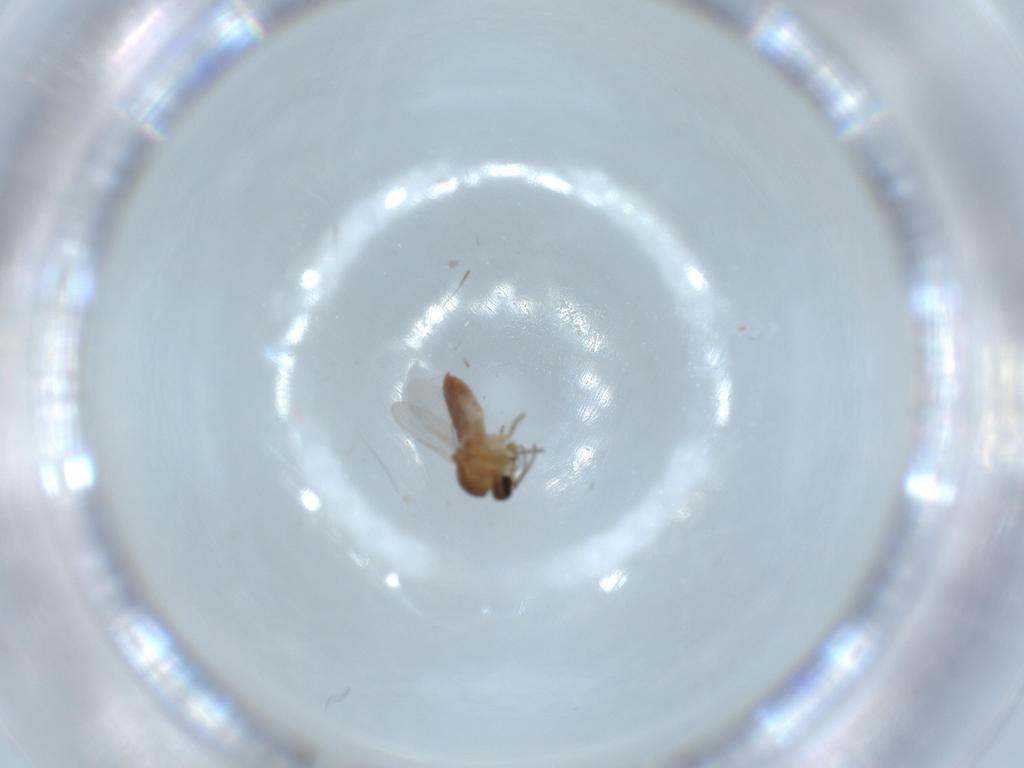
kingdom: Animalia
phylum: Arthropoda
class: Insecta
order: Diptera
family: Ceratopogonidae
